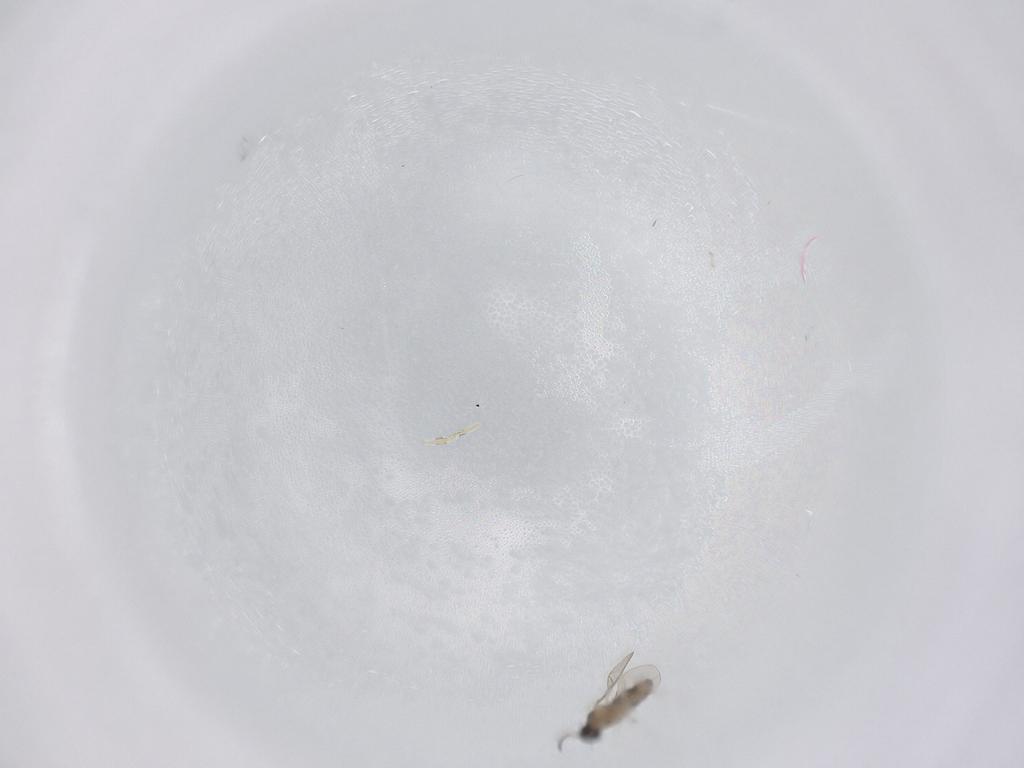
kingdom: Animalia
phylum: Arthropoda
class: Insecta
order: Diptera
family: Cecidomyiidae
